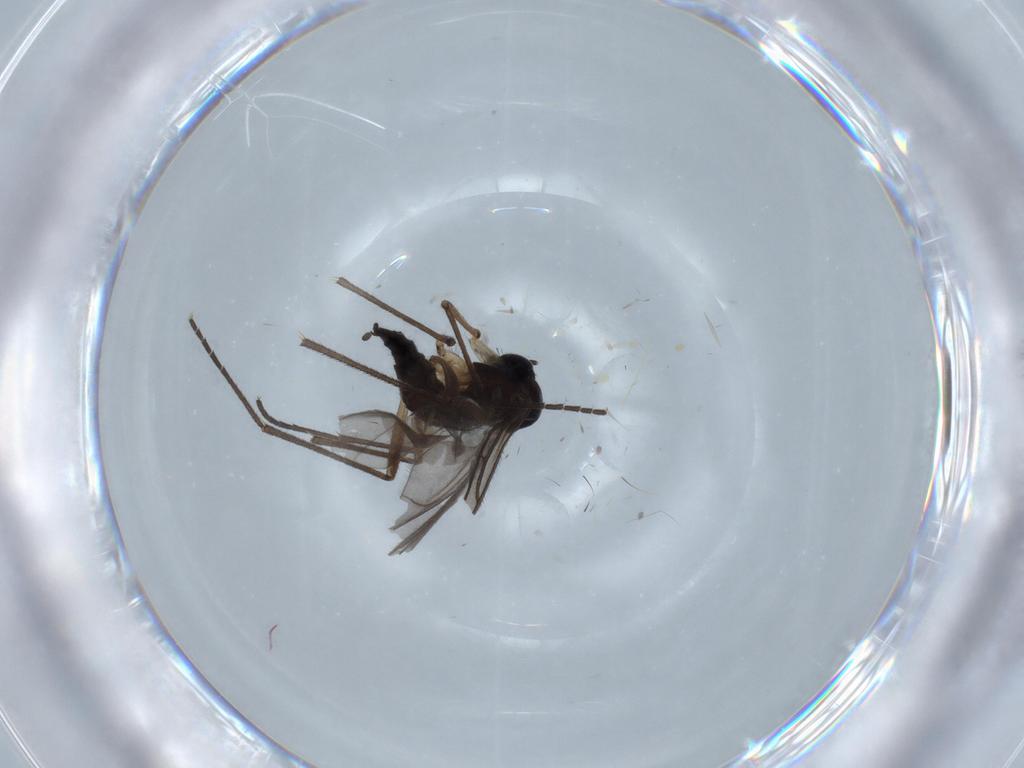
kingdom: Animalia
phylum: Arthropoda
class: Insecta
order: Diptera
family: Sciaridae
